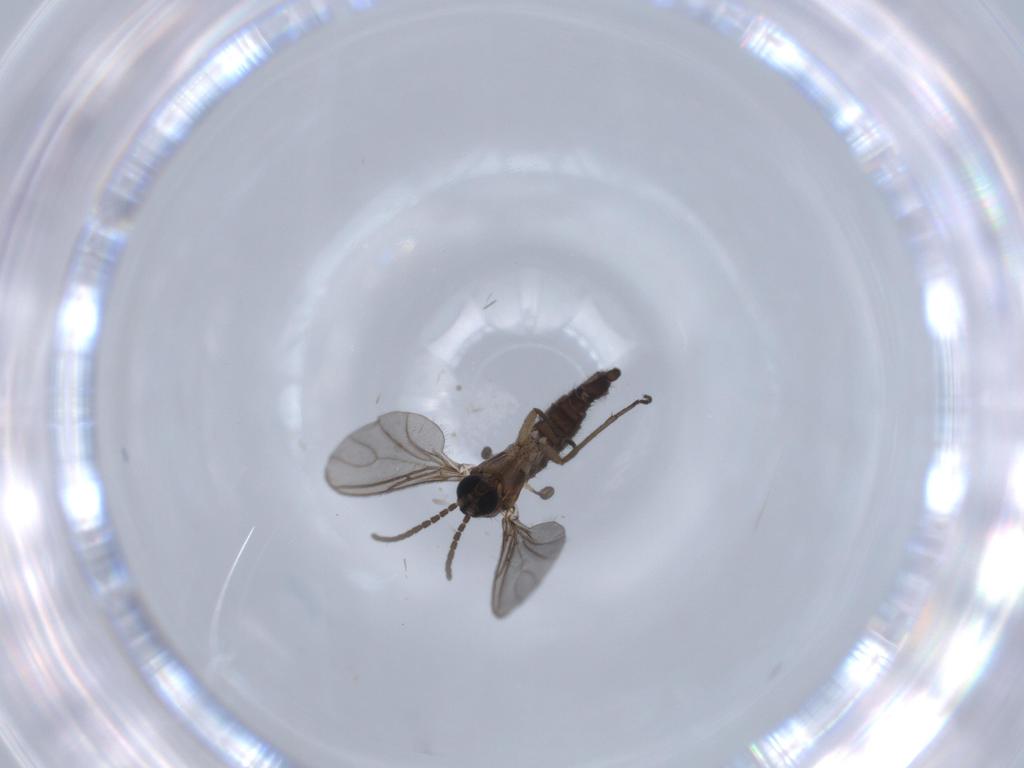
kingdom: Animalia
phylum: Arthropoda
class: Insecta
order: Diptera
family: Sciaridae
